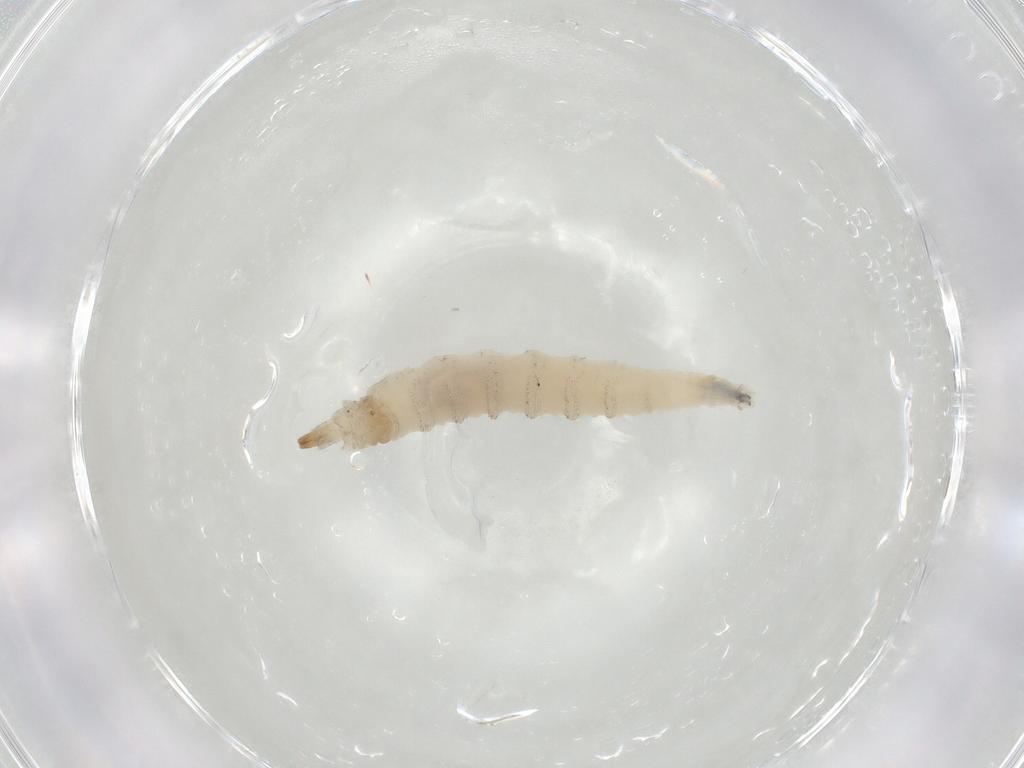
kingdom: Animalia
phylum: Arthropoda
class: Insecta
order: Diptera
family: Drosophilidae
